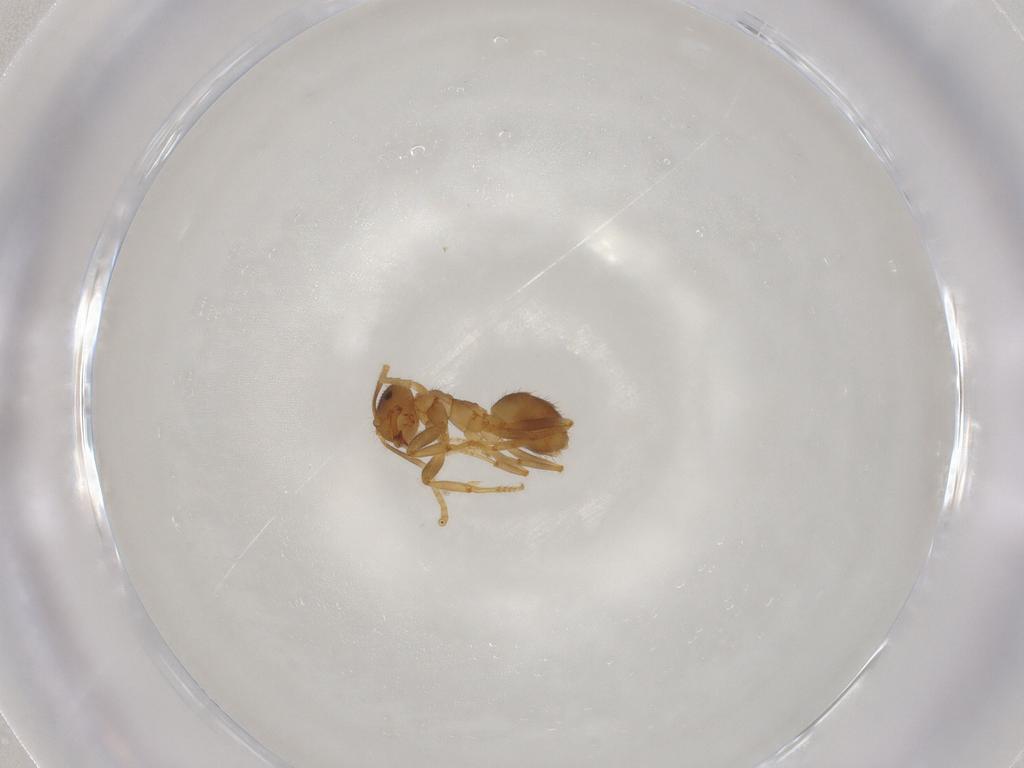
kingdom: Animalia
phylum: Arthropoda
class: Insecta
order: Hymenoptera
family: Formicidae
